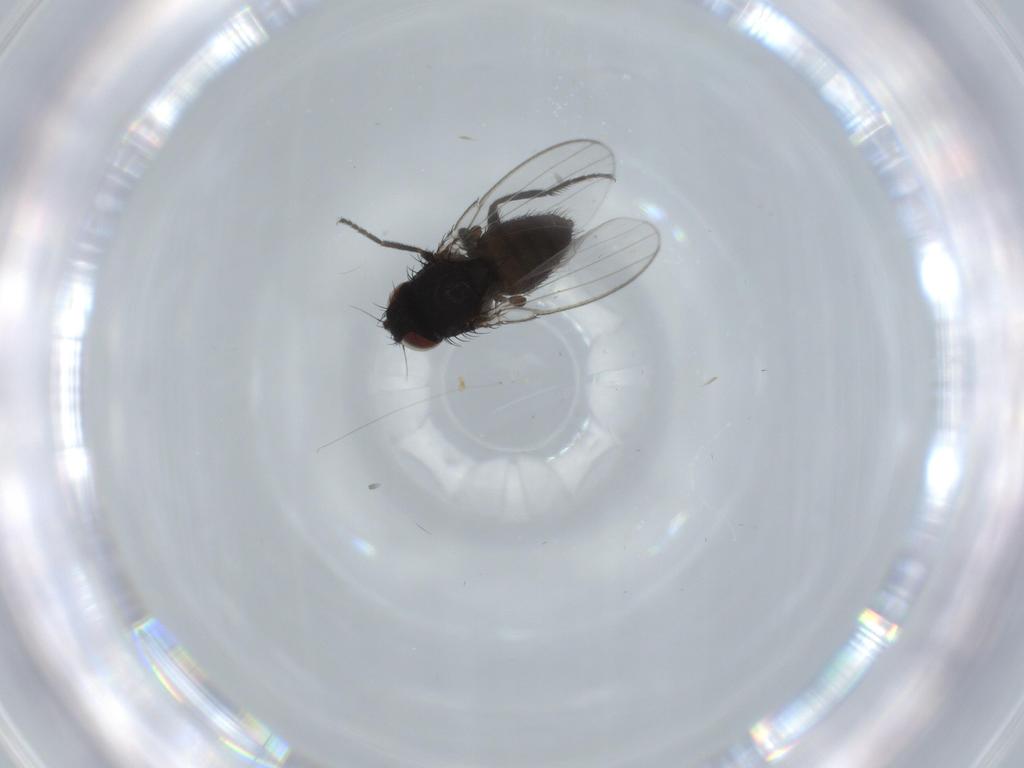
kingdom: Animalia
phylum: Arthropoda
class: Insecta
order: Diptera
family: Milichiidae
